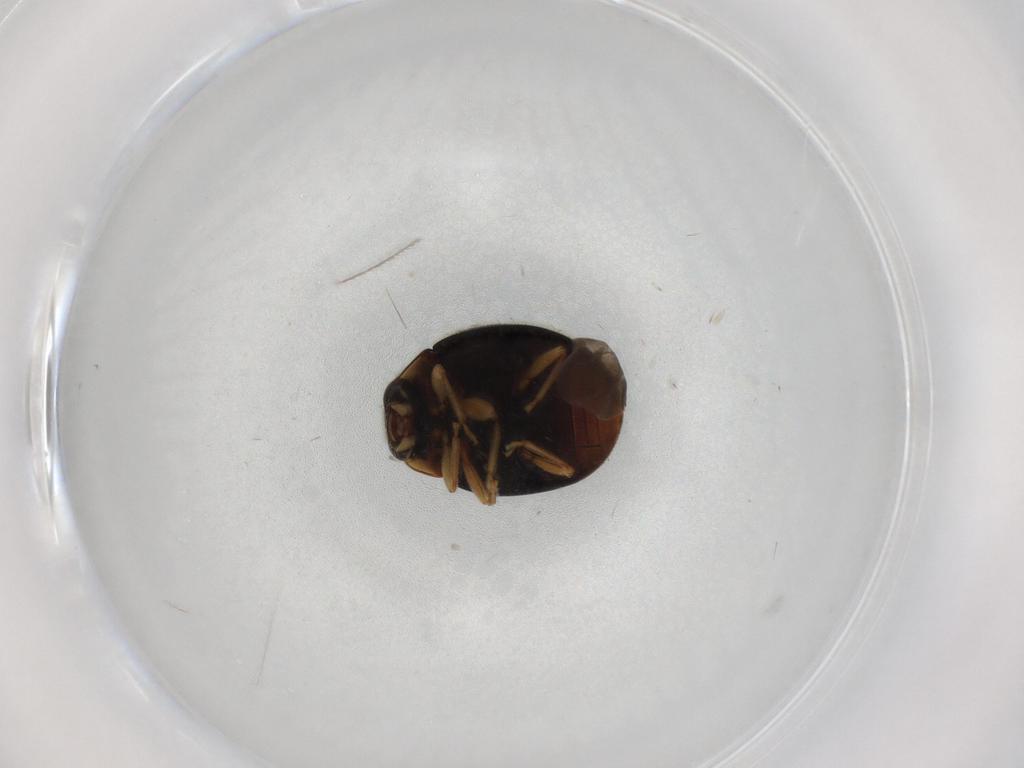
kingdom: Animalia
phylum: Arthropoda
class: Insecta
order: Coleoptera
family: Coccinellidae
